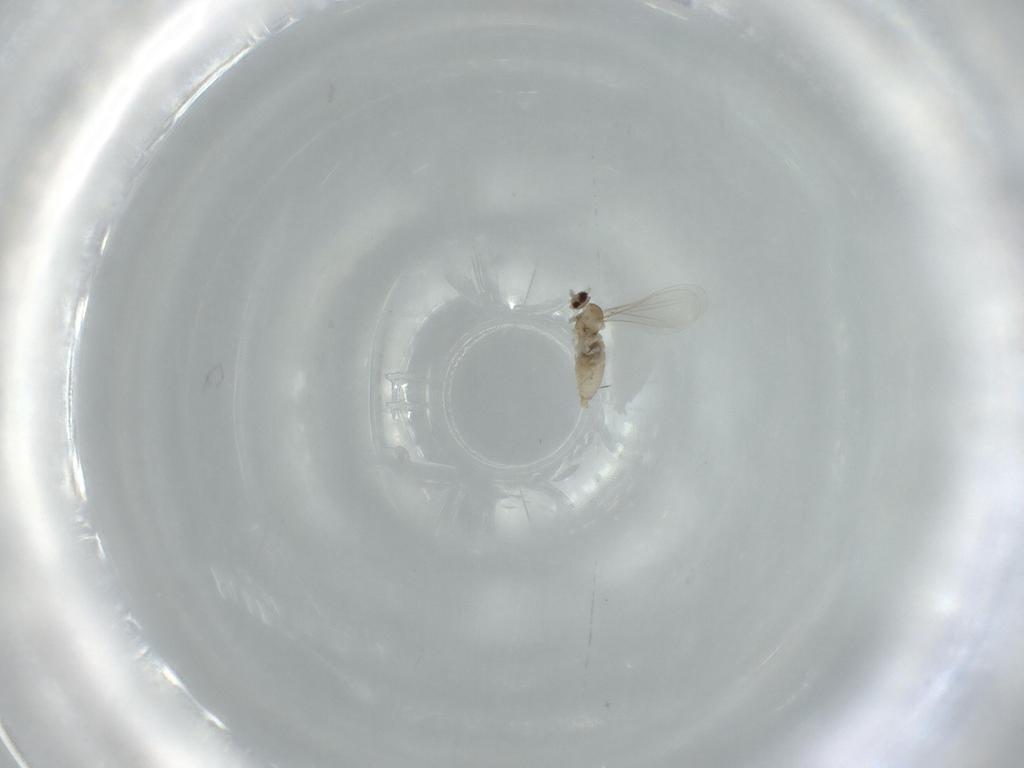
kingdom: Animalia
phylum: Arthropoda
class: Insecta
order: Diptera
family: Cecidomyiidae
